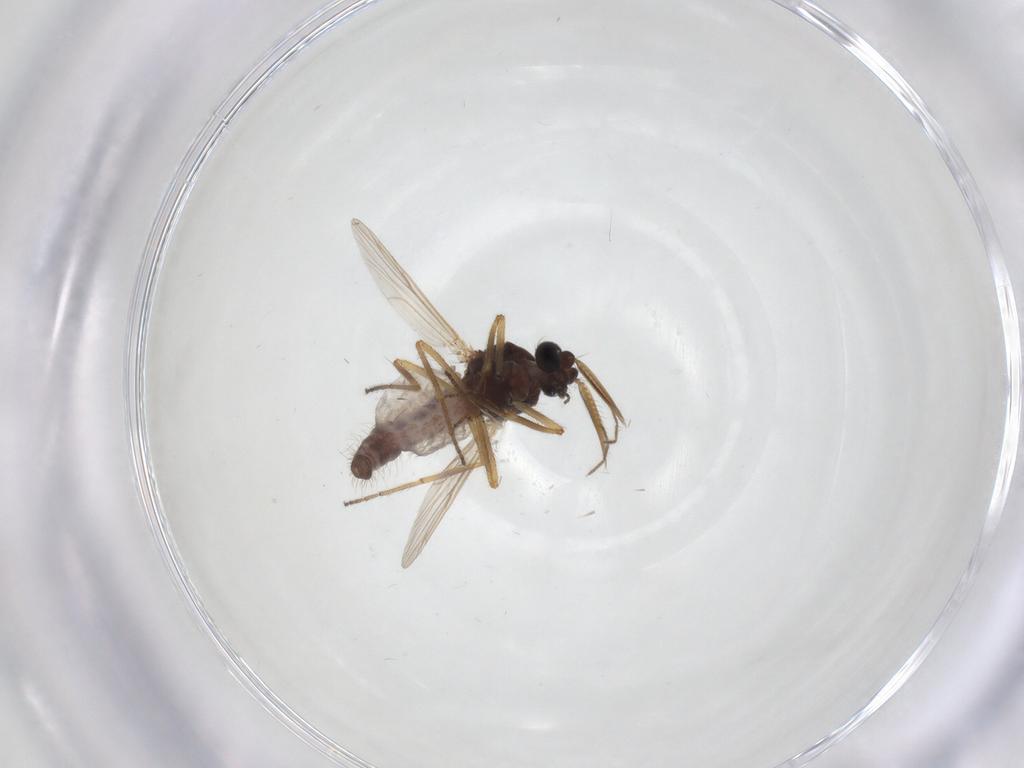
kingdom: Animalia
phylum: Arthropoda
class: Insecta
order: Diptera
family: Ceratopogonidae
